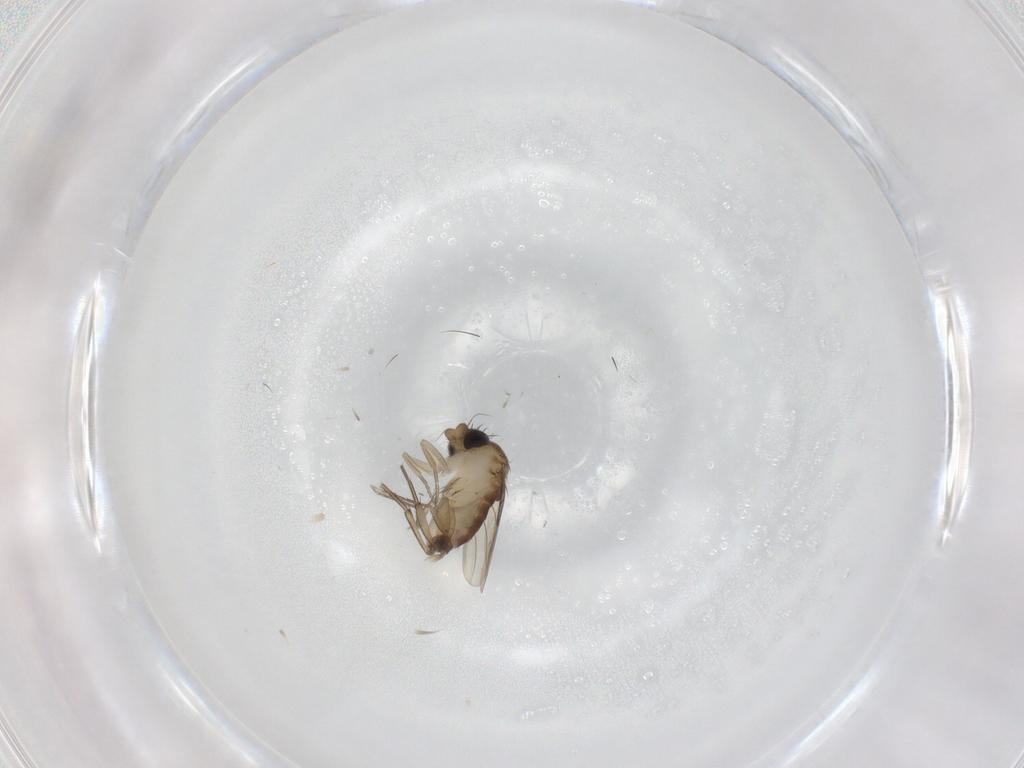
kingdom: Animalia
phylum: Arthropoda
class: Insecta
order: Diptera
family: Phoridae
